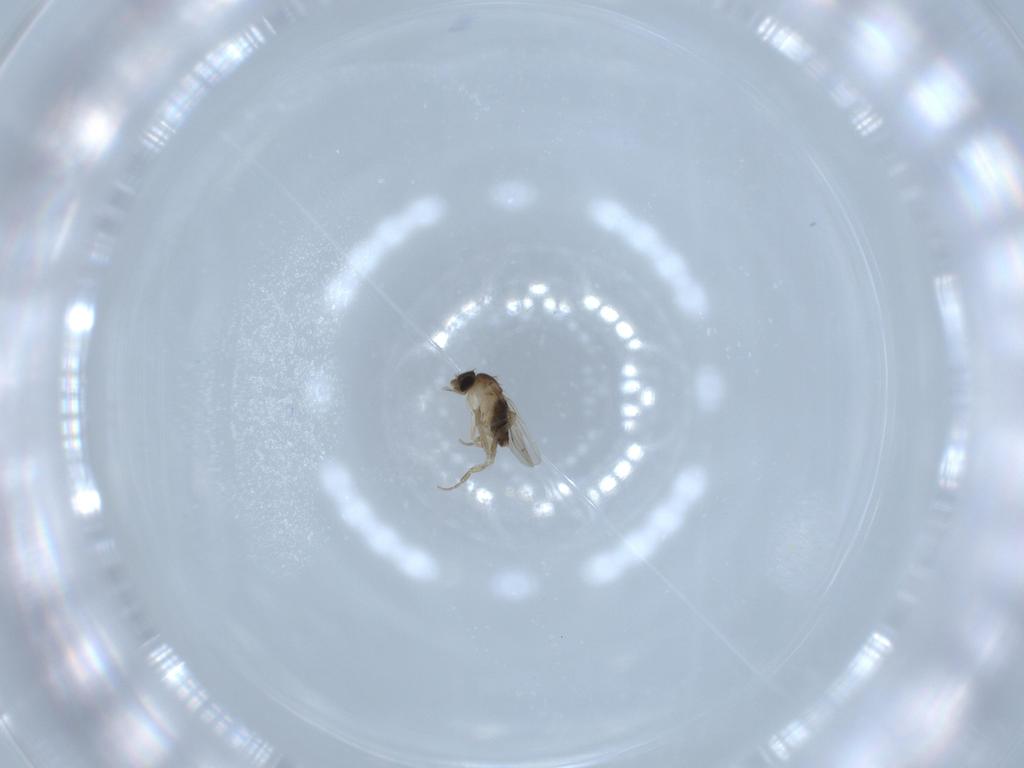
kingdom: Animalia
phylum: Arthropoda
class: Insecta
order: Diptera
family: Phoridae
